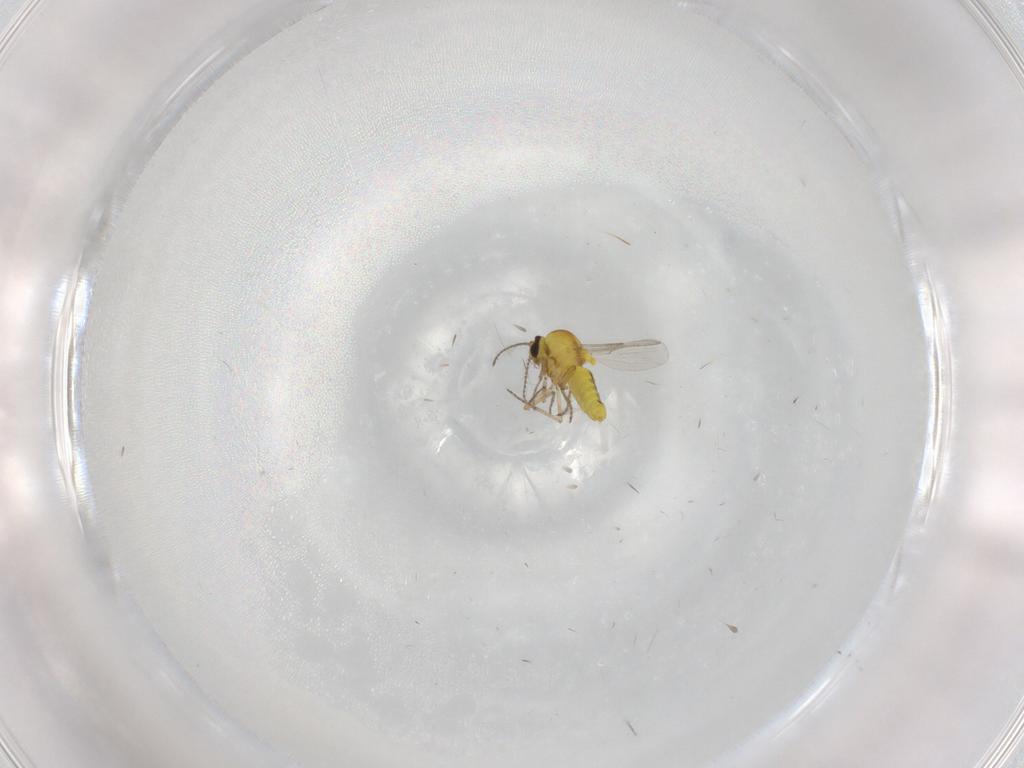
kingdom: Animalia
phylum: Arthropoda
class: Insecta
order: Diptera
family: Ceratopogonidae
